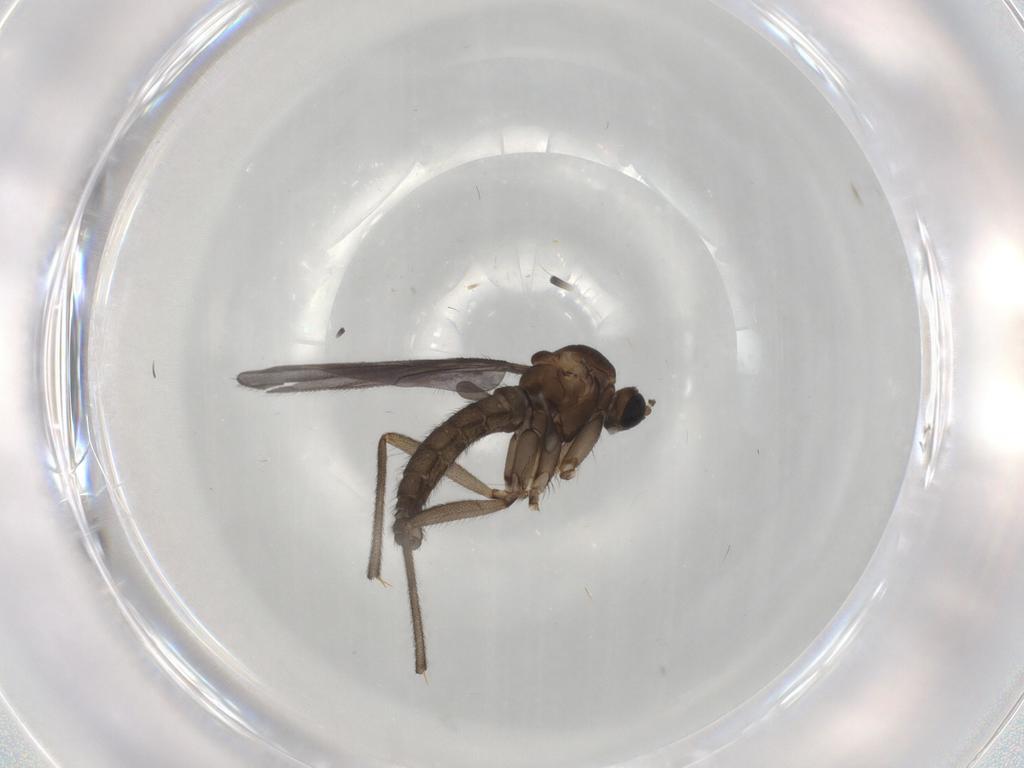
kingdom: Animalia
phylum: Arthropoda
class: Insecta
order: Diptera
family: Sciaridae
